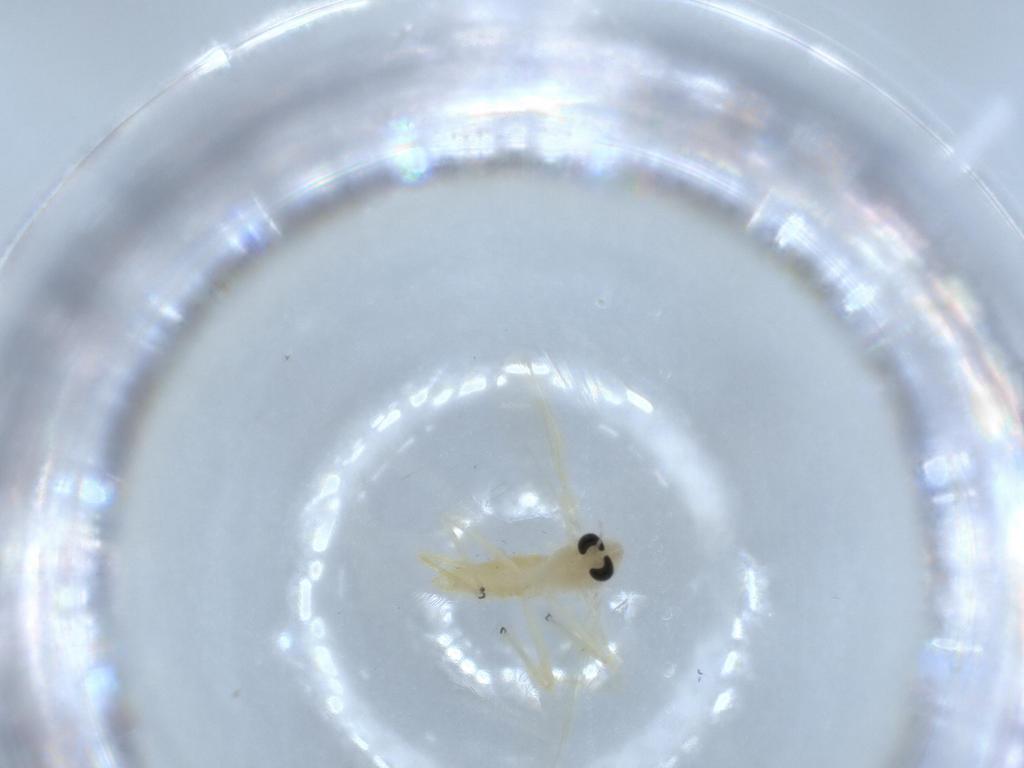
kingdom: Animalia
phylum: Arthropoda
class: Insecta
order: Diptera
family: Chironomidae
